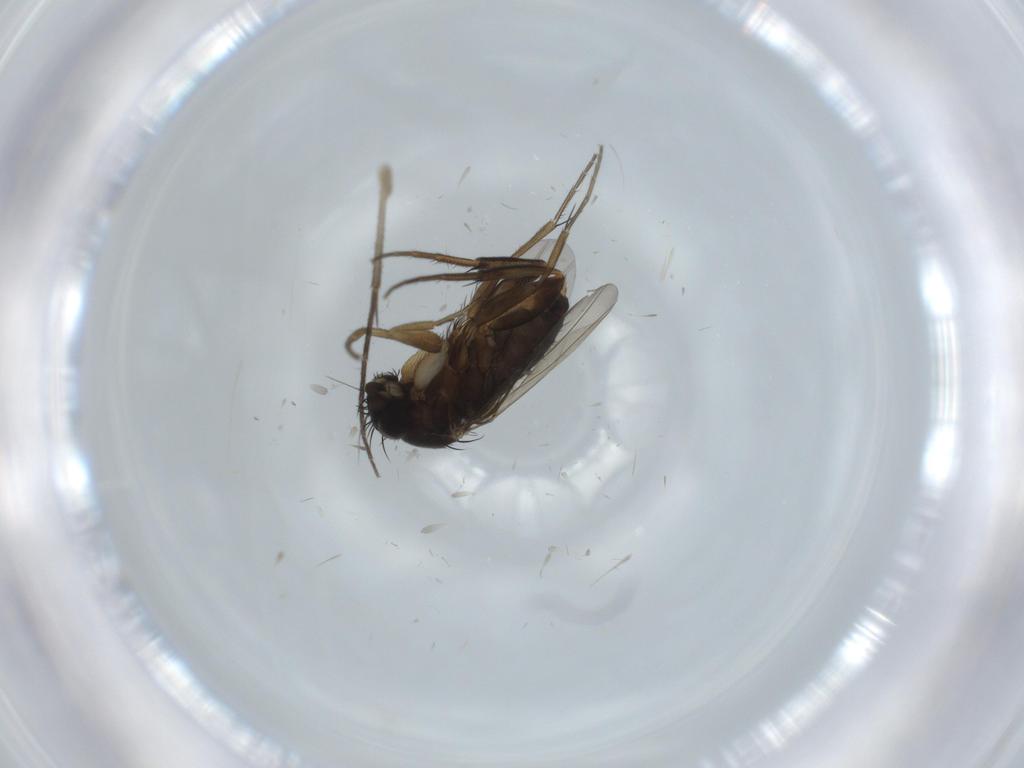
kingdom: Animalia
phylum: Arthropoda
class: Insecta
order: Diptera
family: Phoridae
